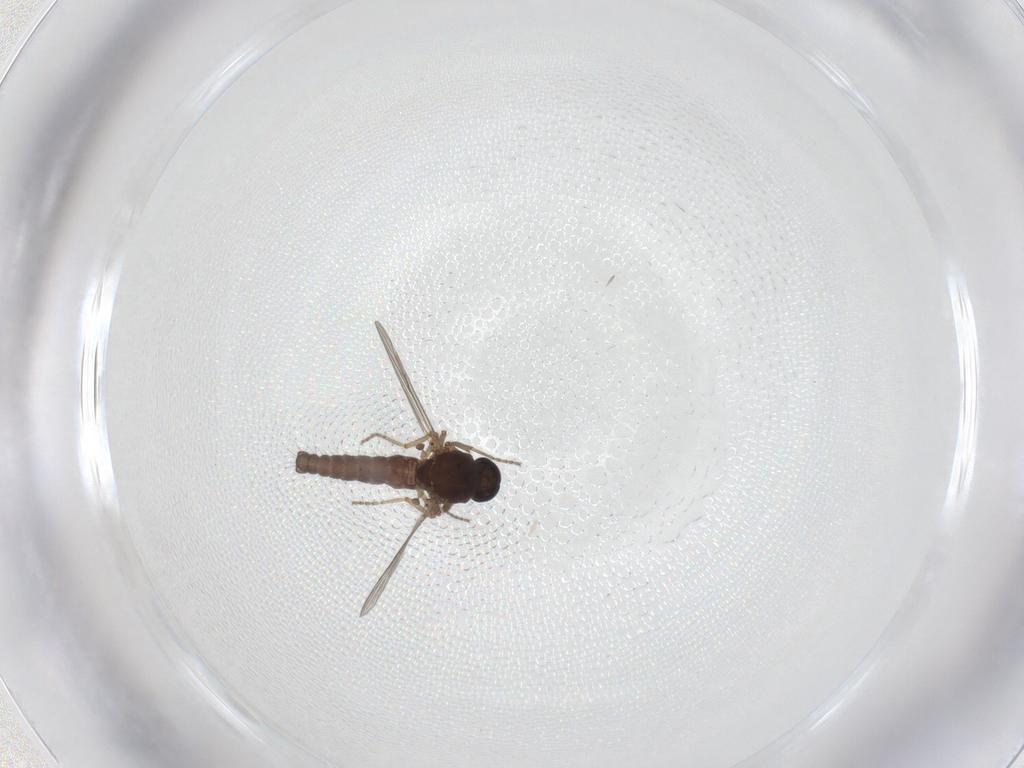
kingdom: Animalia
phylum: Arthropoda
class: Insecta
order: Diptera
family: Ceratopogonidae
